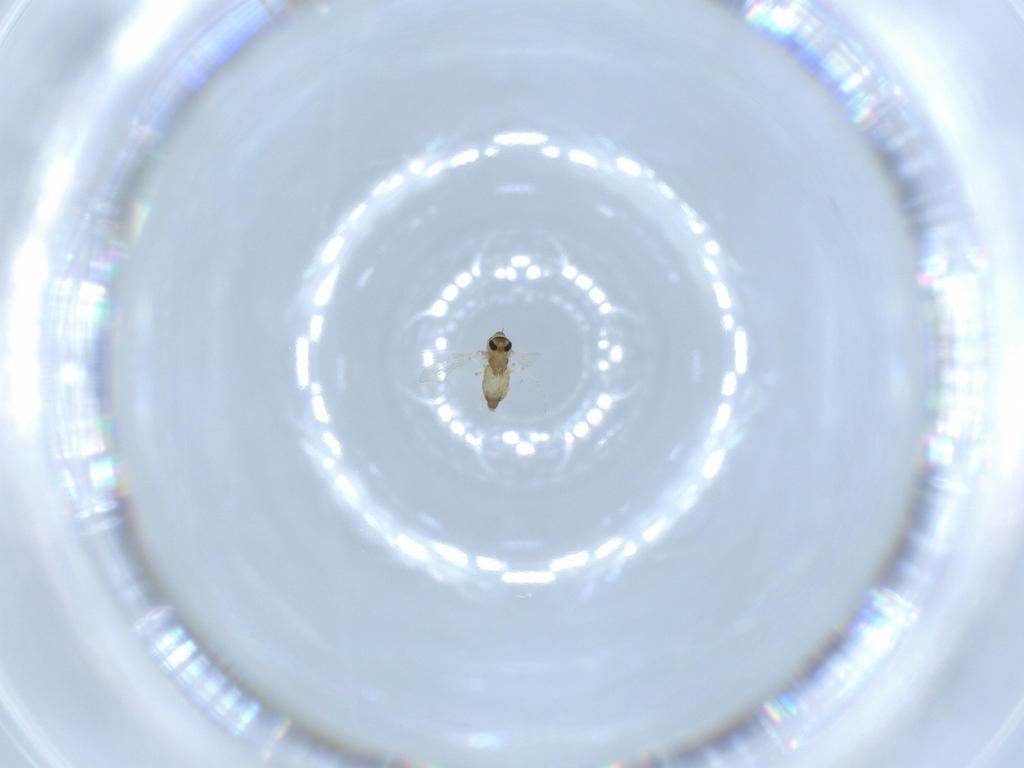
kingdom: Animalia
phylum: Arthropoda
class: Insecta
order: Diptera
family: Chironomidae
